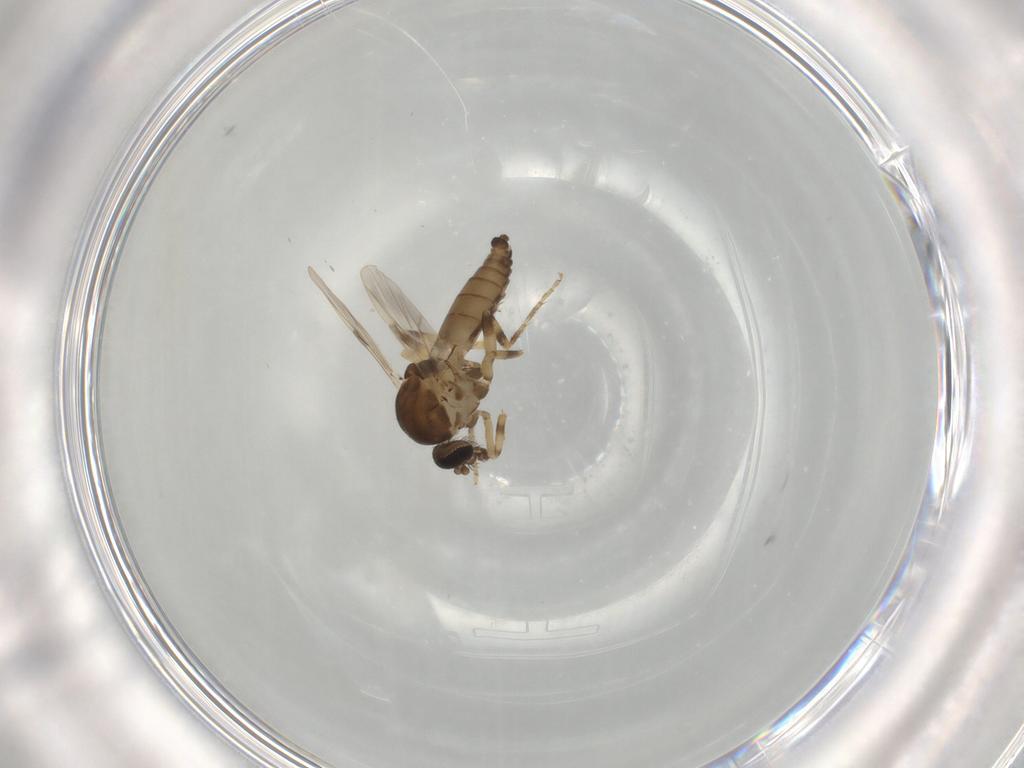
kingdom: Animalia
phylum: Arthropoda
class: Insecta
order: Diptera
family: Ceratopogonidae
